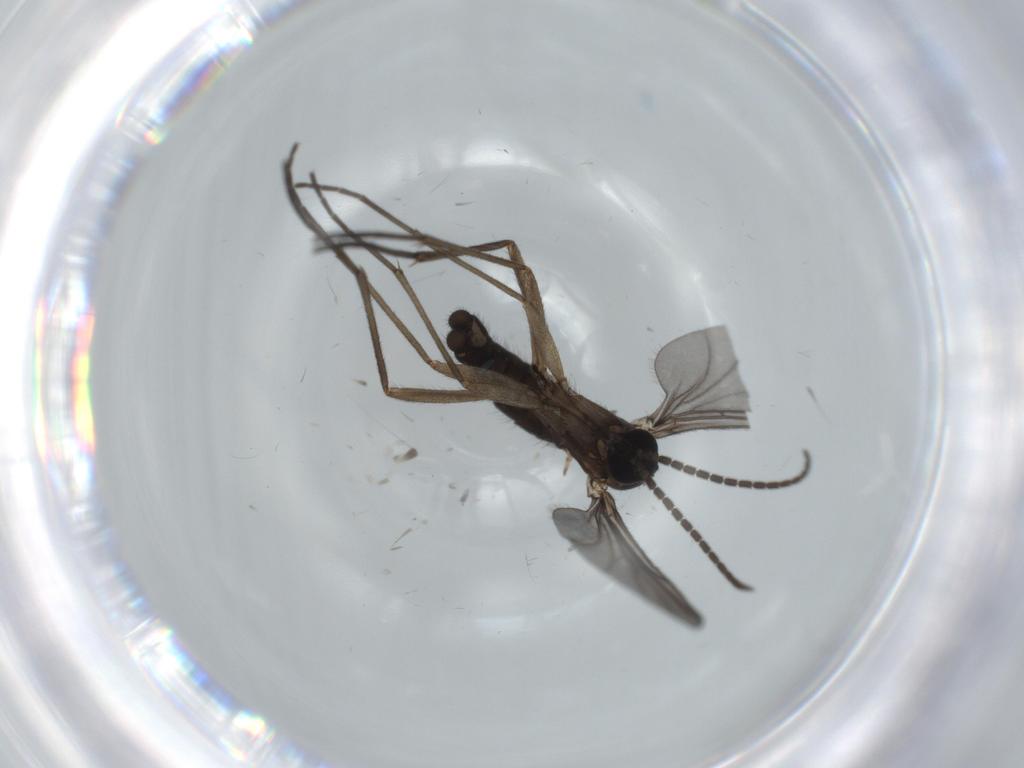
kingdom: Animalia
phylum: Arthropoda
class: Insecta
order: Diptera
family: Sciaridae
